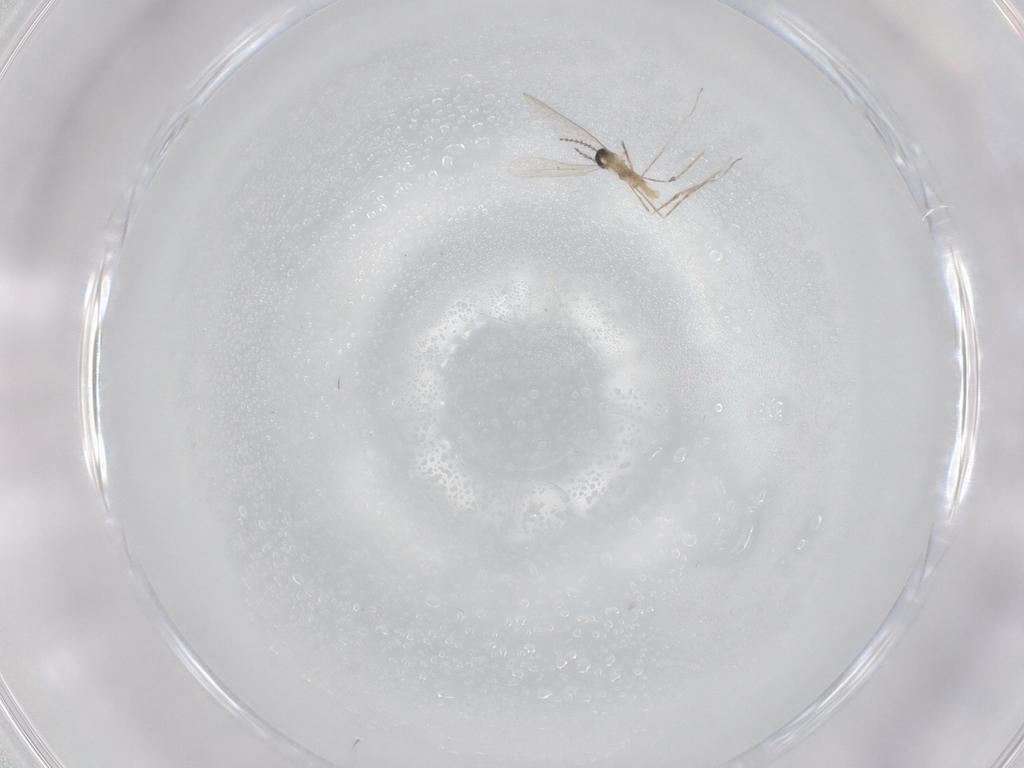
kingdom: Animalia
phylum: Arthropoda
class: Insecta
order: Diptera
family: Cecidomyiidae
